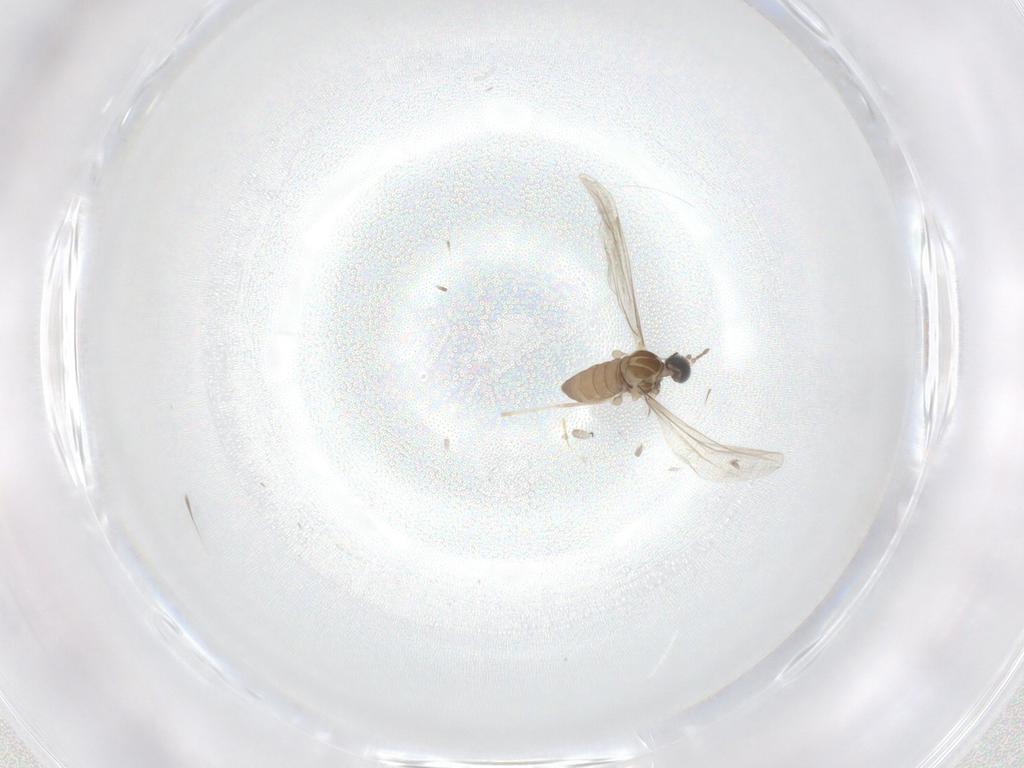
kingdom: Animalia
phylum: Arthropoda
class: Insecta
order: Diptera
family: Cecidomyiidae
